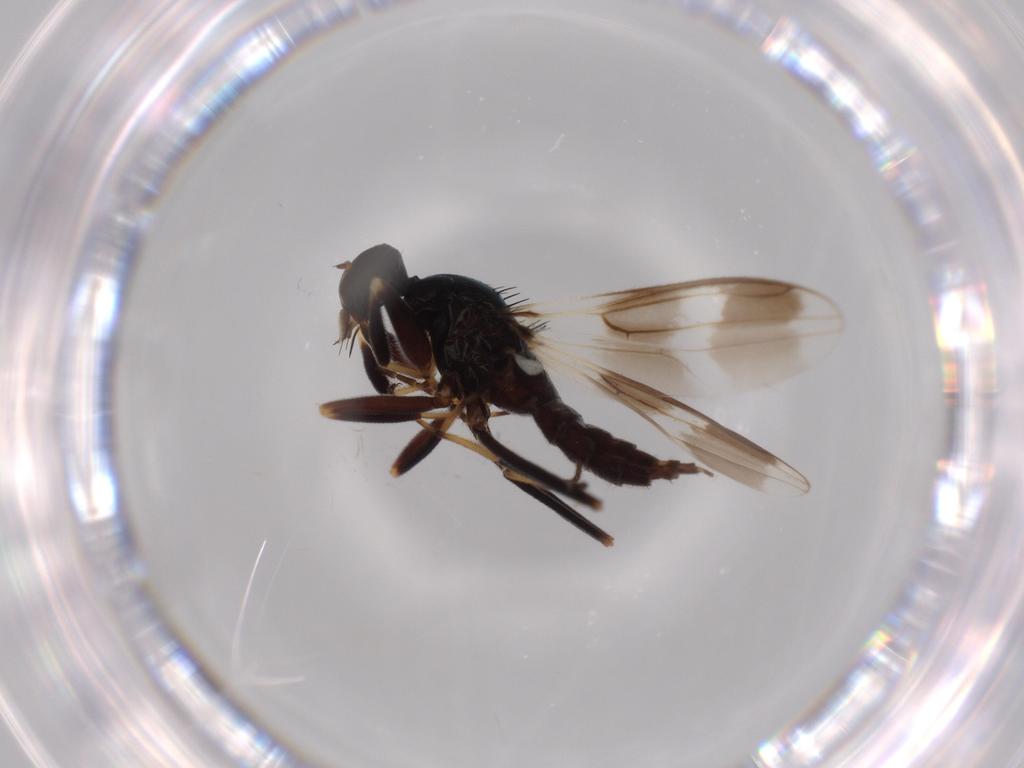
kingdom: Animalia
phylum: Arthropoda
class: Insecta
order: Diptera
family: Hybotidae
